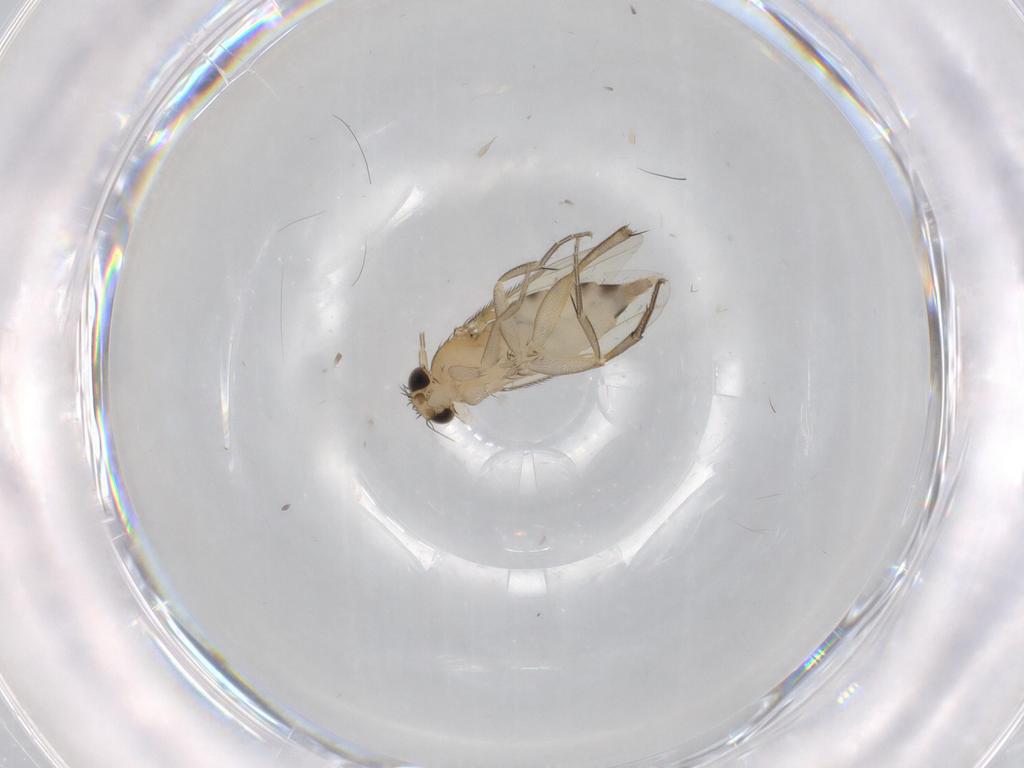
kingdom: Animalia
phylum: Arthropoda
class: Insecta
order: Diptera
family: Phoridae
